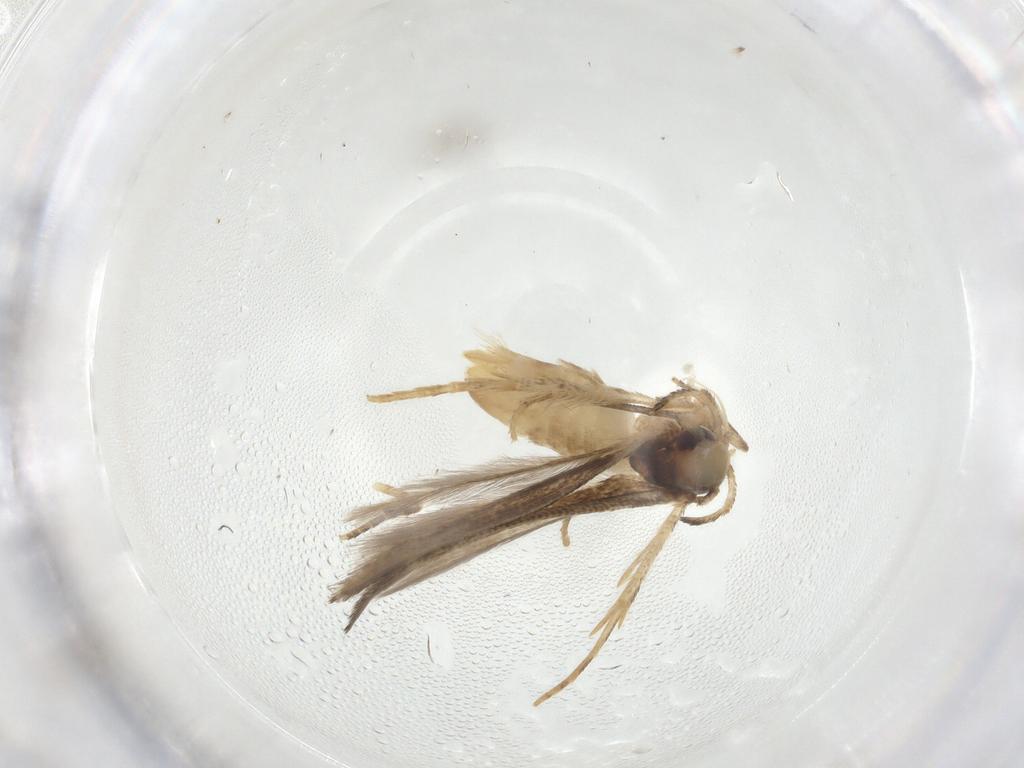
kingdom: Animalia
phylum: Arthropoda
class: Insecta
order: Lepidoptera
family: Cosmopterigidae
